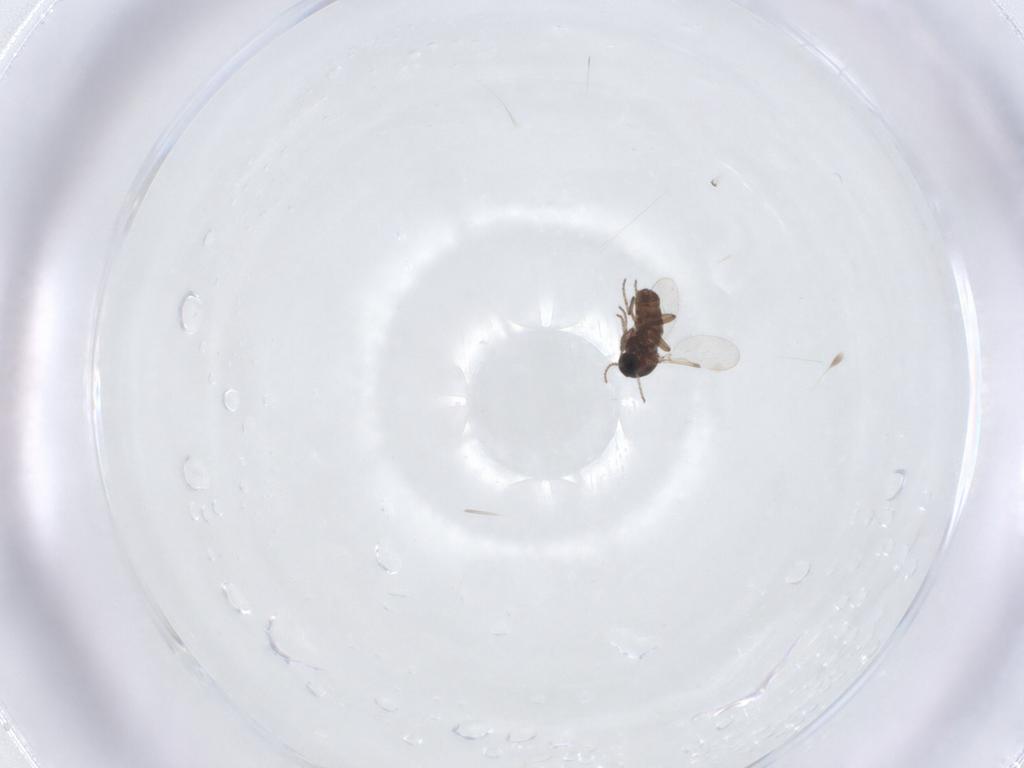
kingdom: Animalia
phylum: Arthropoda
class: Insecta
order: Diptera
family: Ceratopogonidae
